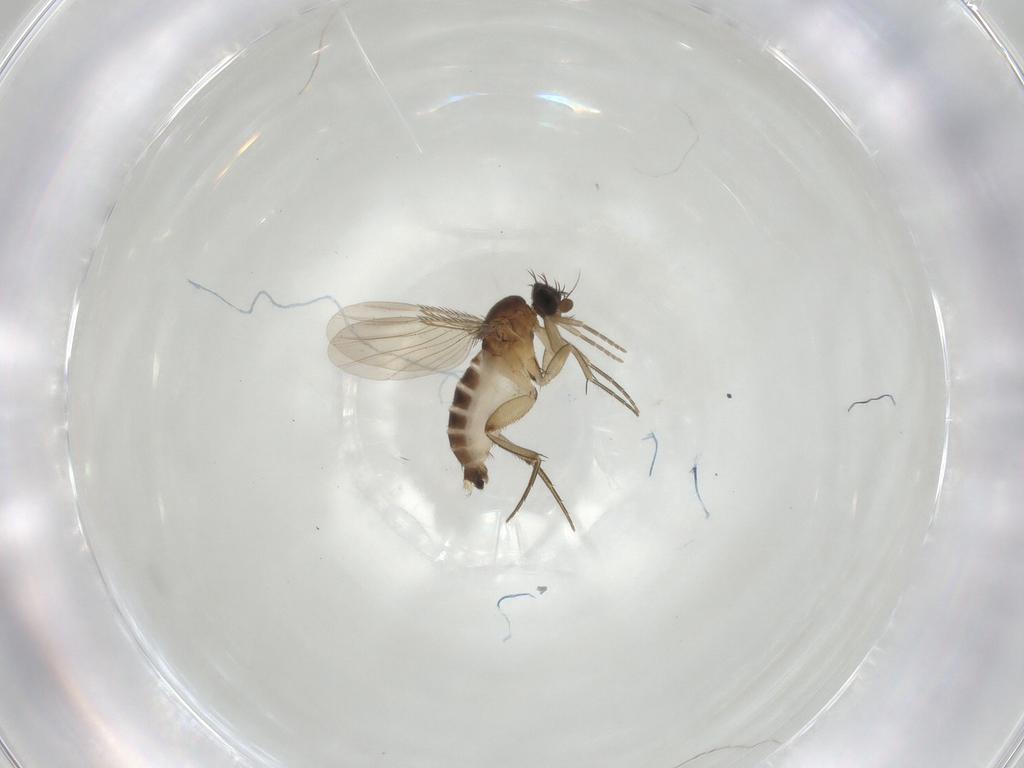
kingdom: Animalia
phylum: Arthropoda
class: Insecta
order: Diptera
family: Phoridae
